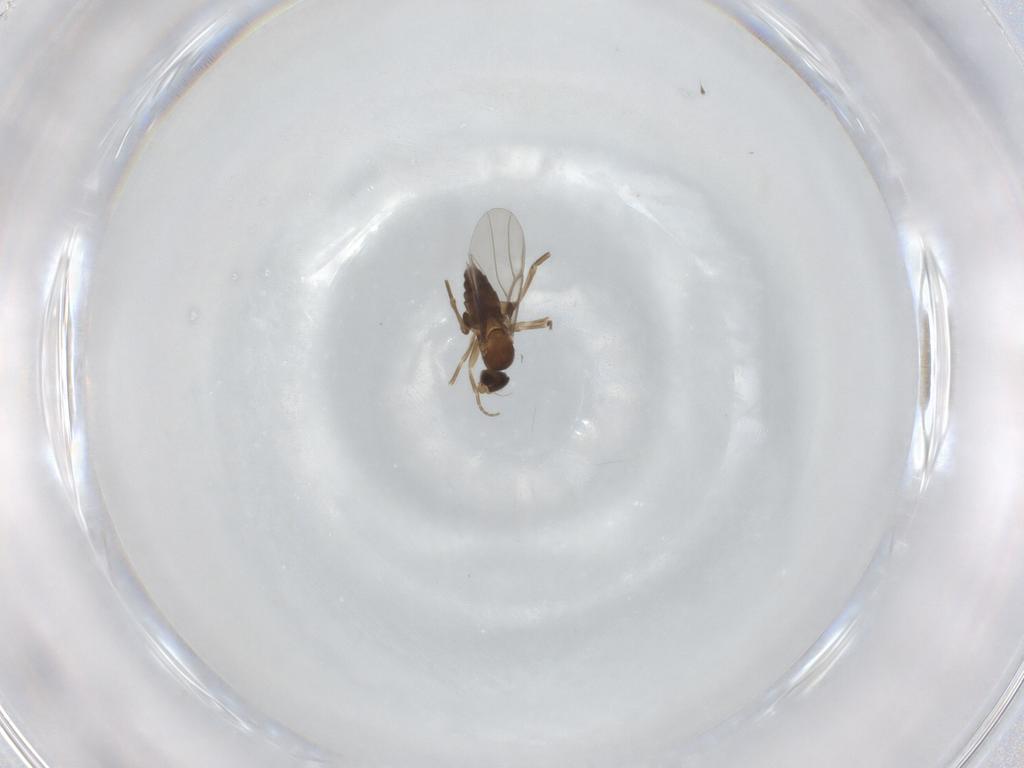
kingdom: Animalia
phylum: Arthropoda
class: Insecta
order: Diptera
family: Phoridae
